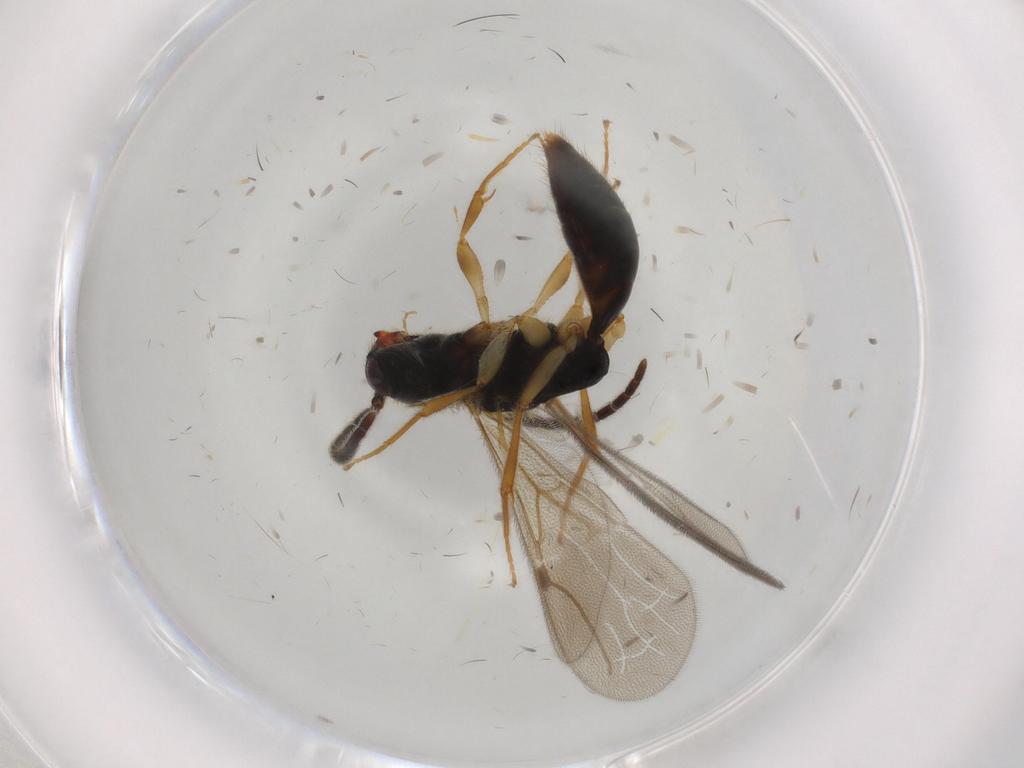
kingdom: Animalia
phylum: Arthropoda
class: Insecta
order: Hymenoptera
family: Bethylidae
